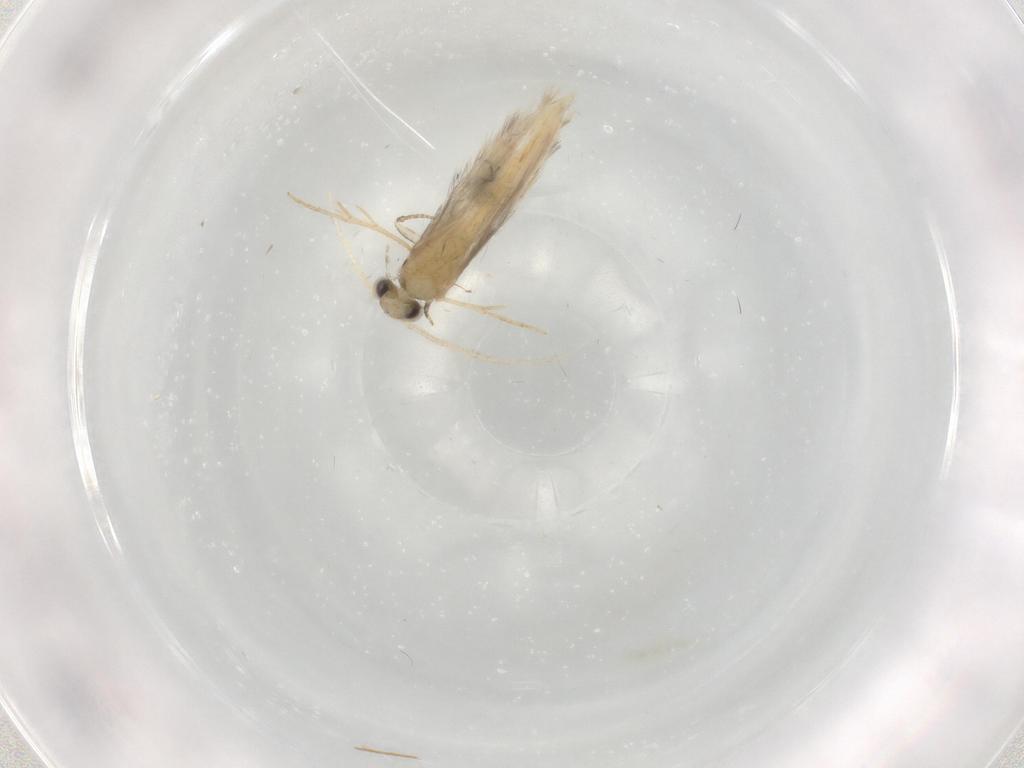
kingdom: Animalia
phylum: Arthropoda
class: Insecta
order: Trichoptera
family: Hydroptilidae
